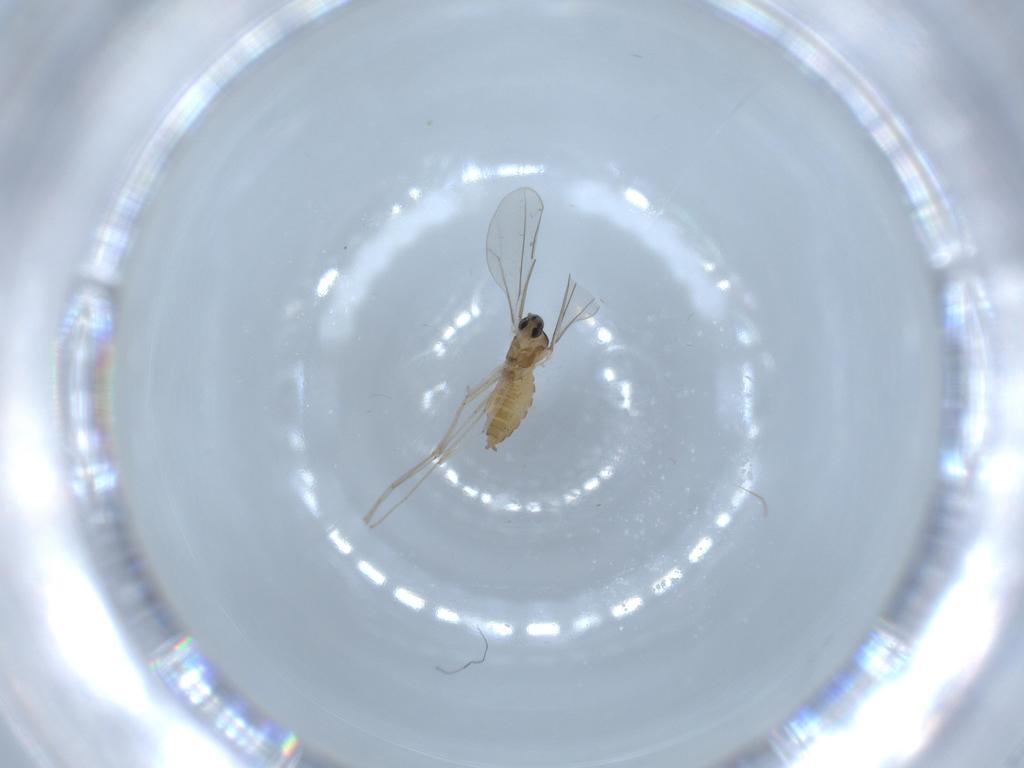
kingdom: Animalia
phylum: Arthropoda
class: Insecta
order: Diptera
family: Cecidomyiidae
